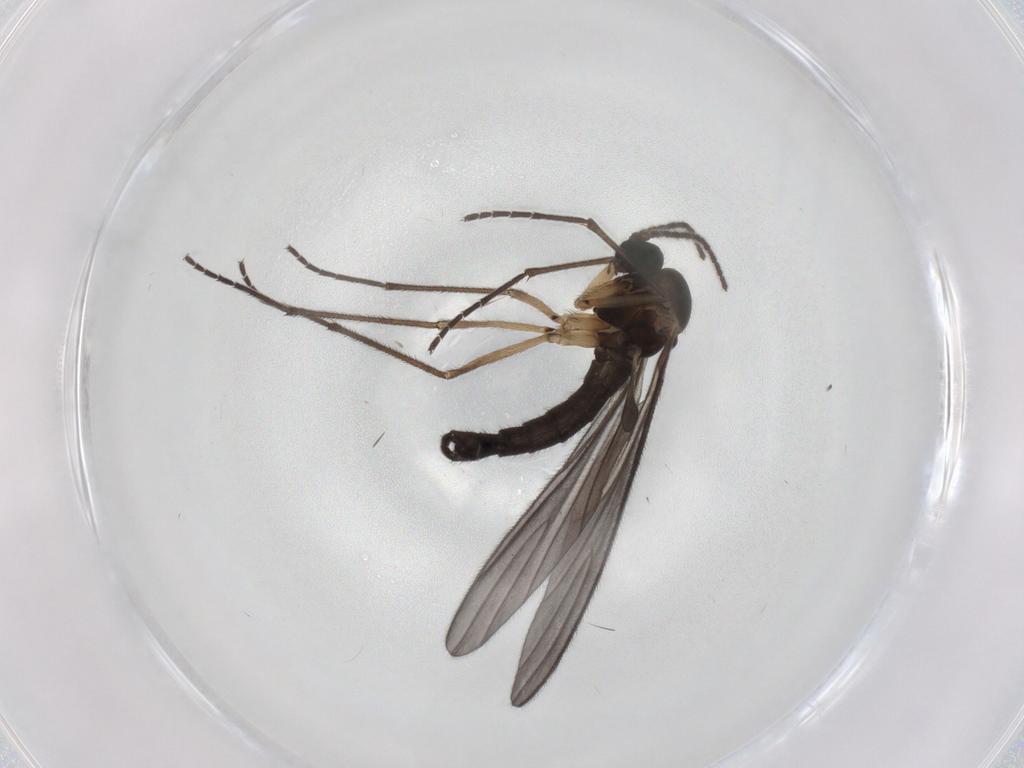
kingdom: Animalia
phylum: Arthropoda
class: Insecta
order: Diptera
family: Sciaridae
